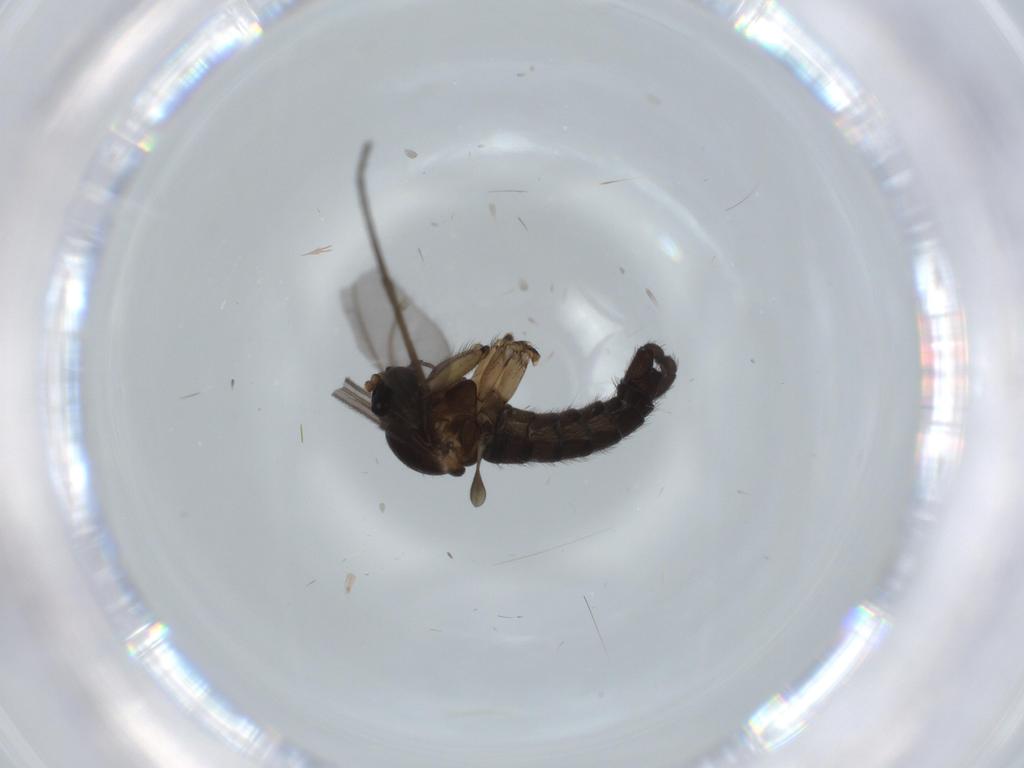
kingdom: Animalia
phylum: Arthropoda
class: Insecta
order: Diptera
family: Sciaridae
